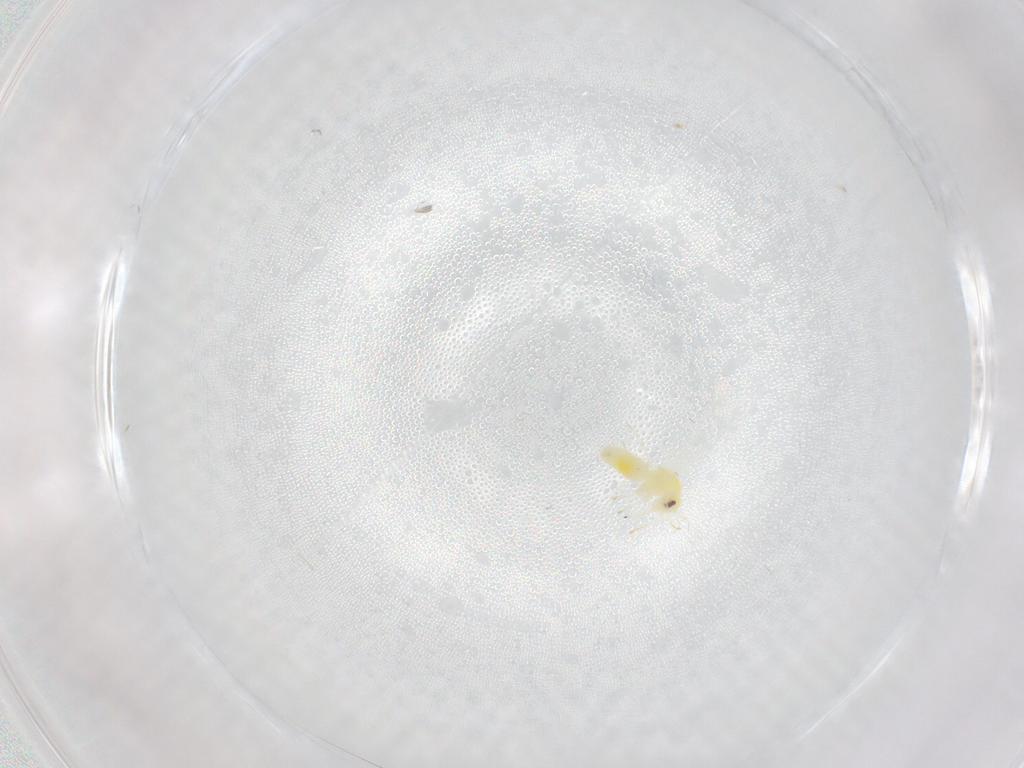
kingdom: Animalia
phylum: Arthropoda
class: Insecta
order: Hemiptera
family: Aleyrodidae
